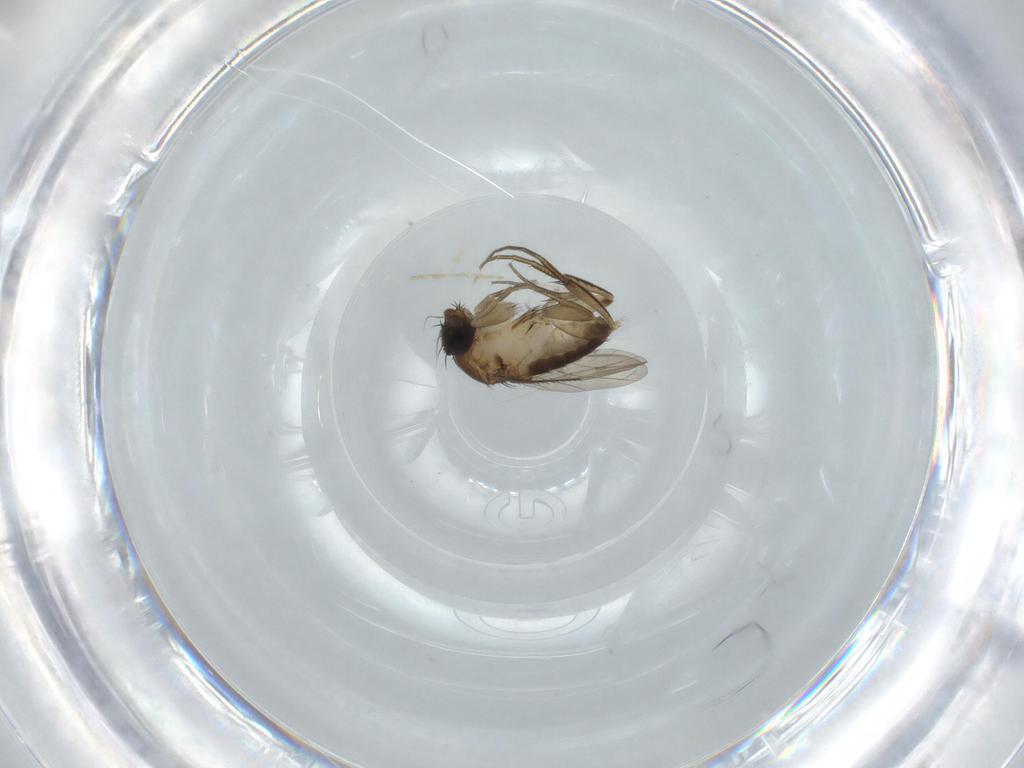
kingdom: Animalia
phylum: Arthropoda
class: Insecta
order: Diptera
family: Phoridae
